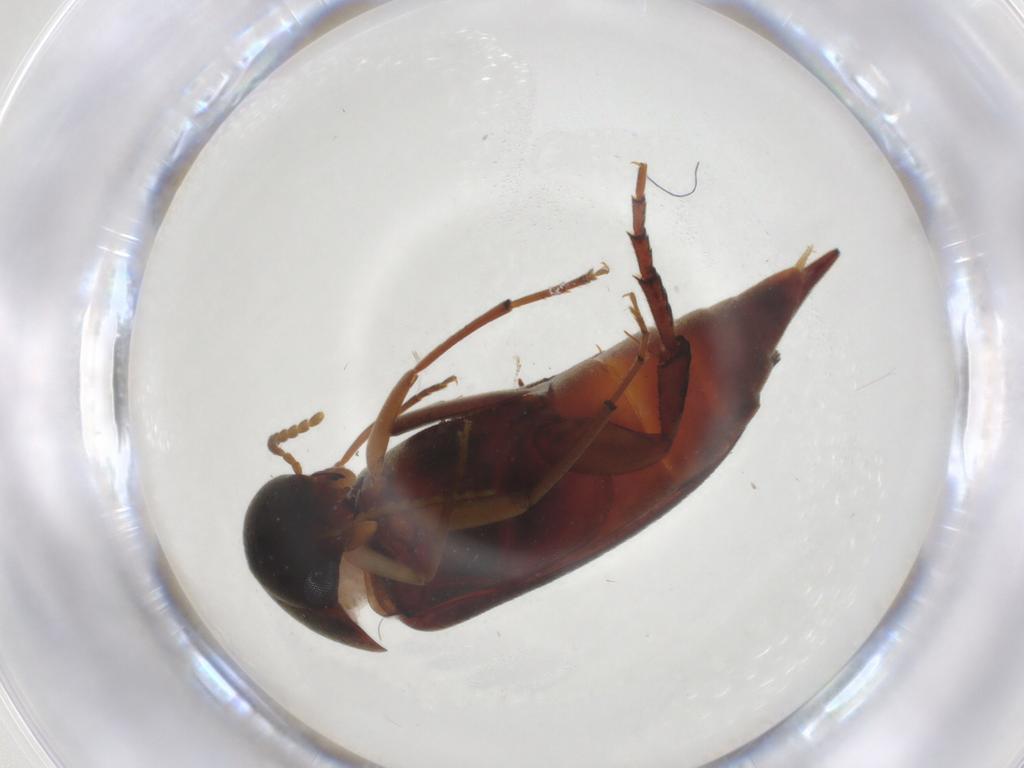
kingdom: Animalia
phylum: Arthropoda
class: Insecta
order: Coleoptera
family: Mordellidae
